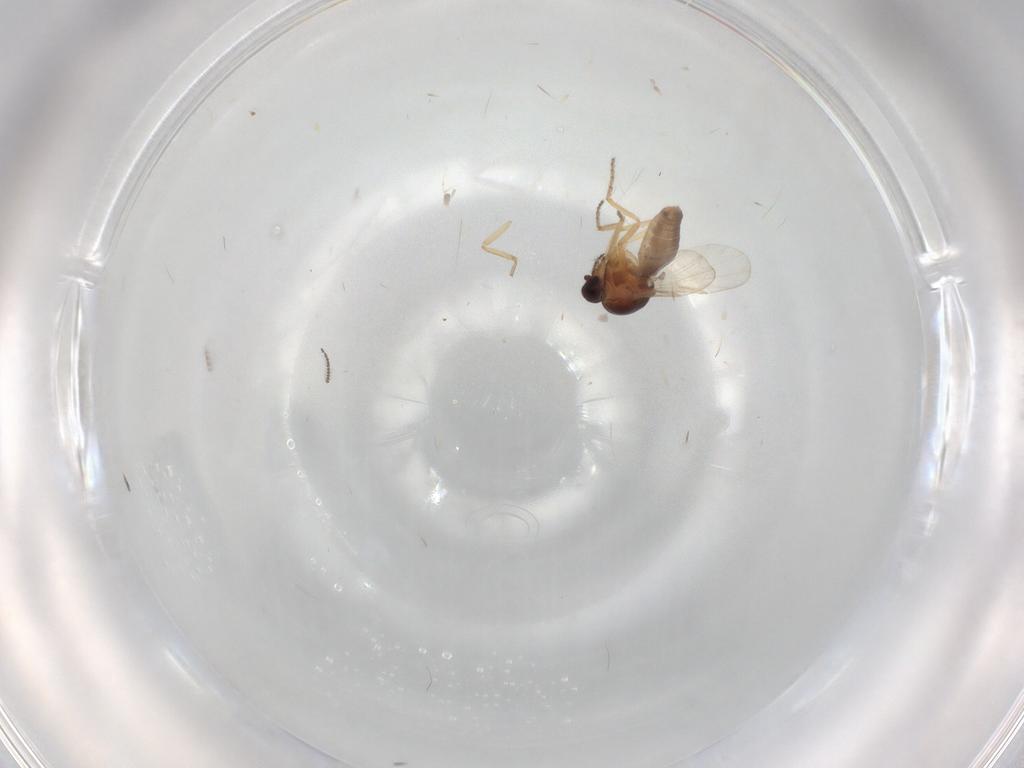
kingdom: Animalia
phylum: Arthropoda
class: Insecta
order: Diptera
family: Ceratopogonidae
